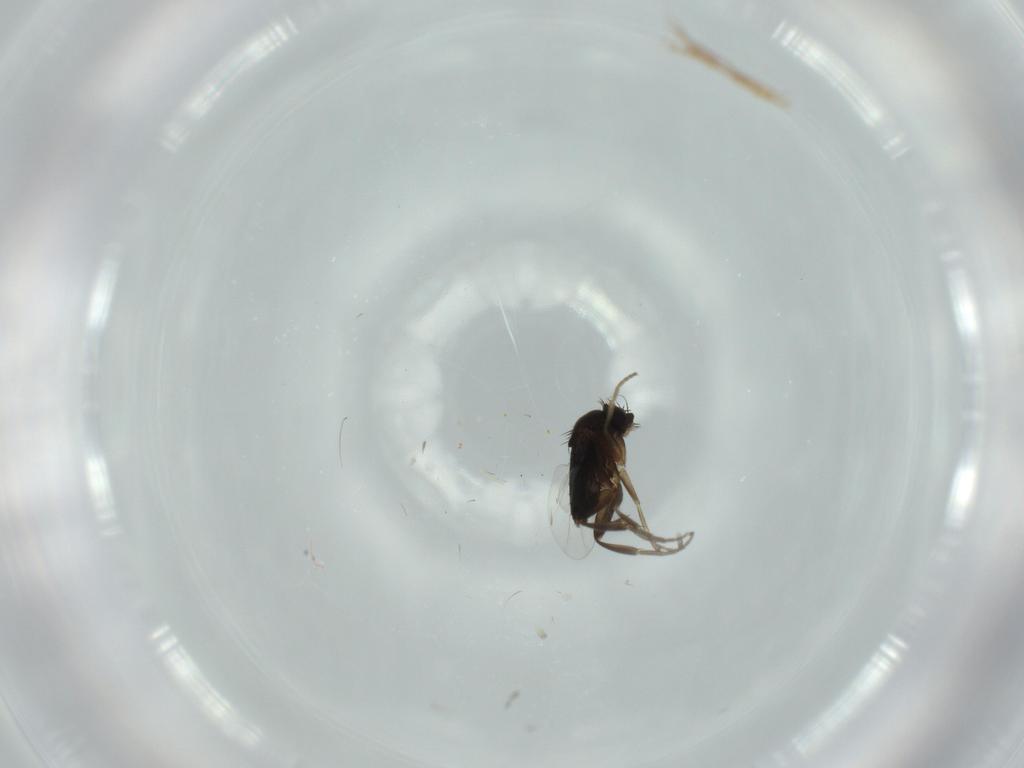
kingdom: Animalia
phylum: Arthropoda
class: Insecta
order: Diptera
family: Phoridae
